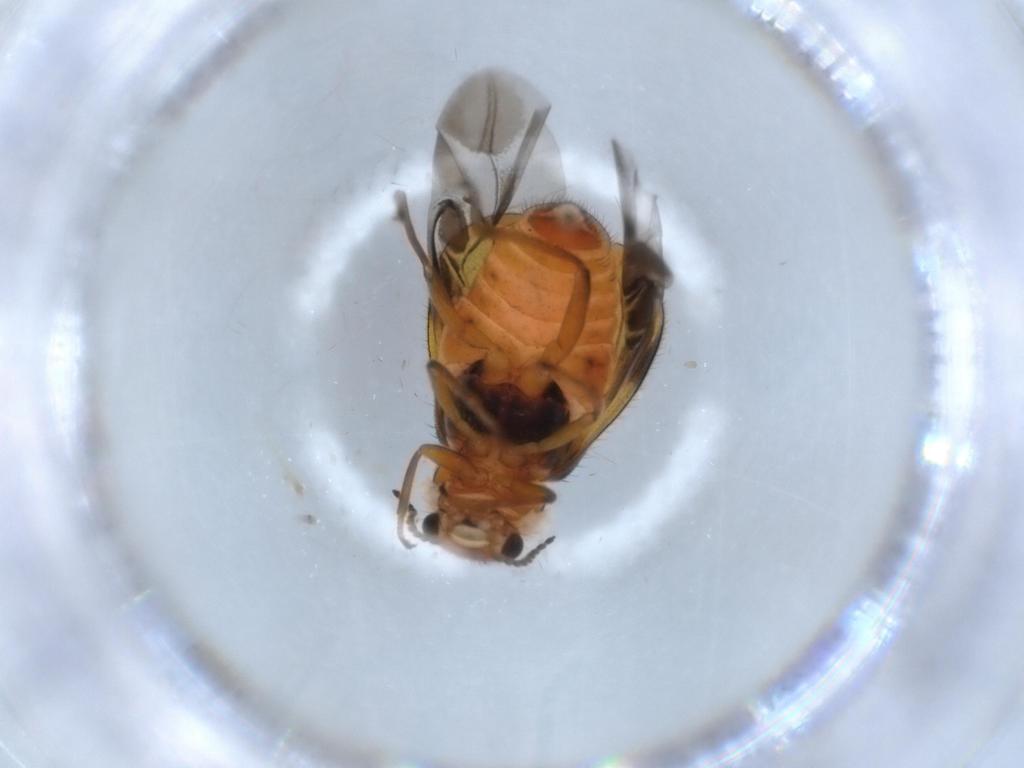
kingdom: Animalia
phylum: Arthropoda
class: Insecta
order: Coleoptera
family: Melyridae
